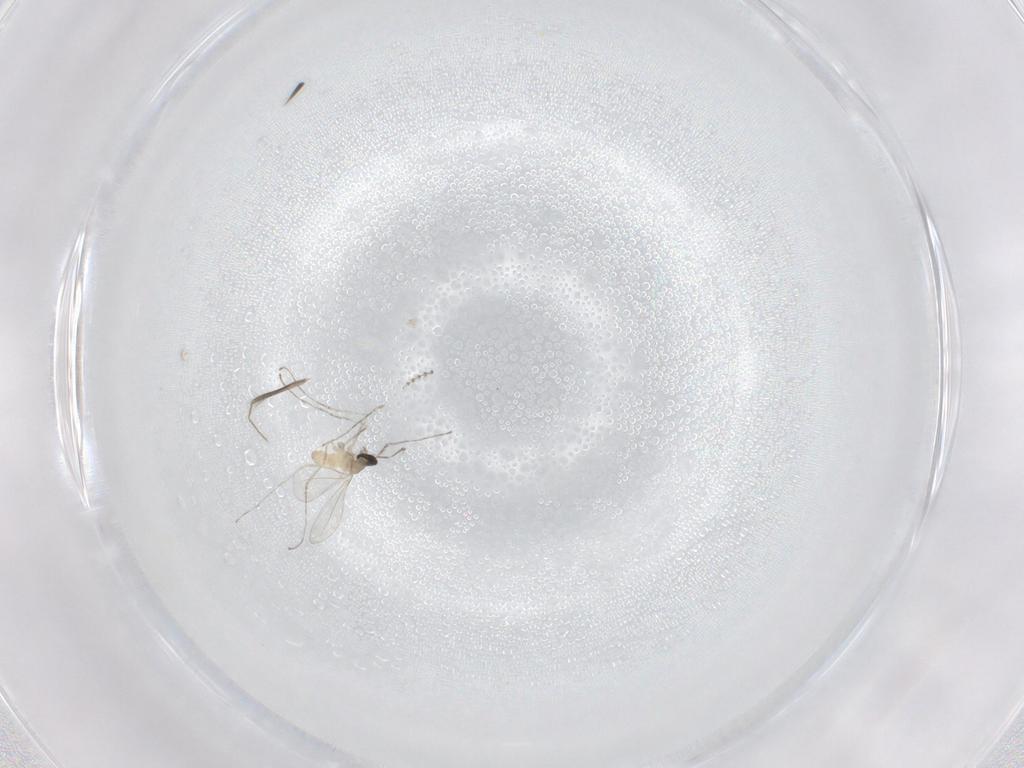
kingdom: Animalia
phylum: Arthropoda
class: Insecta
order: Diptera
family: Cecidomyiidae
